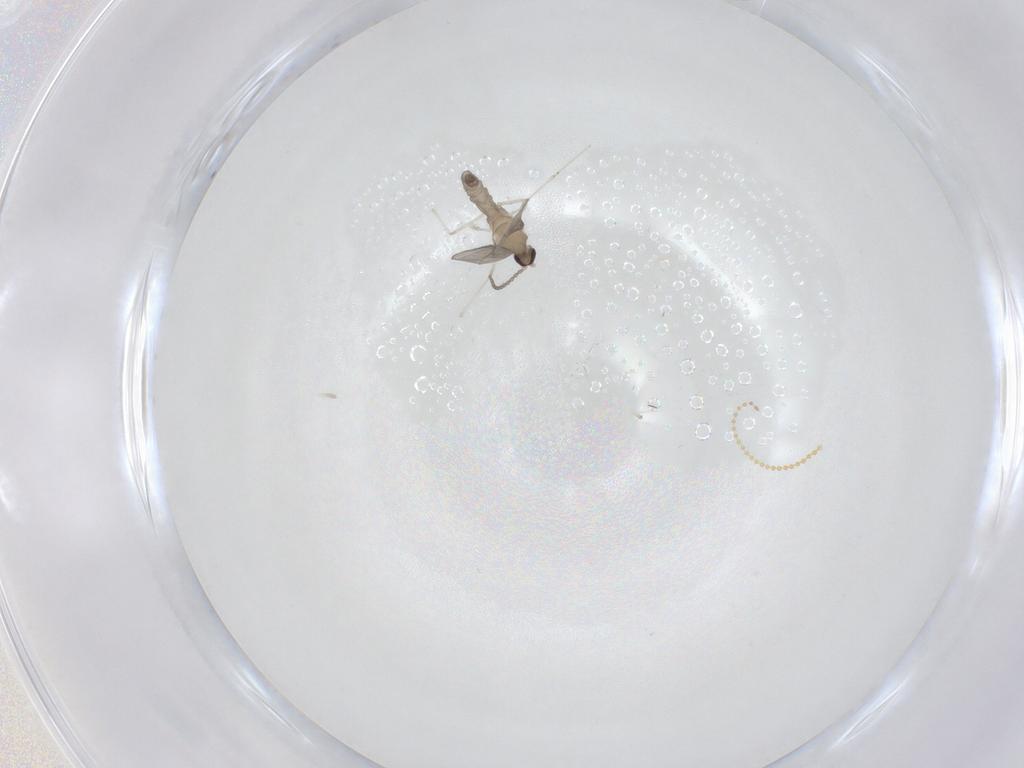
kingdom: Animalia
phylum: Arthropoda
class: Insecta
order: Diptera
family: Cecidomyiidae
